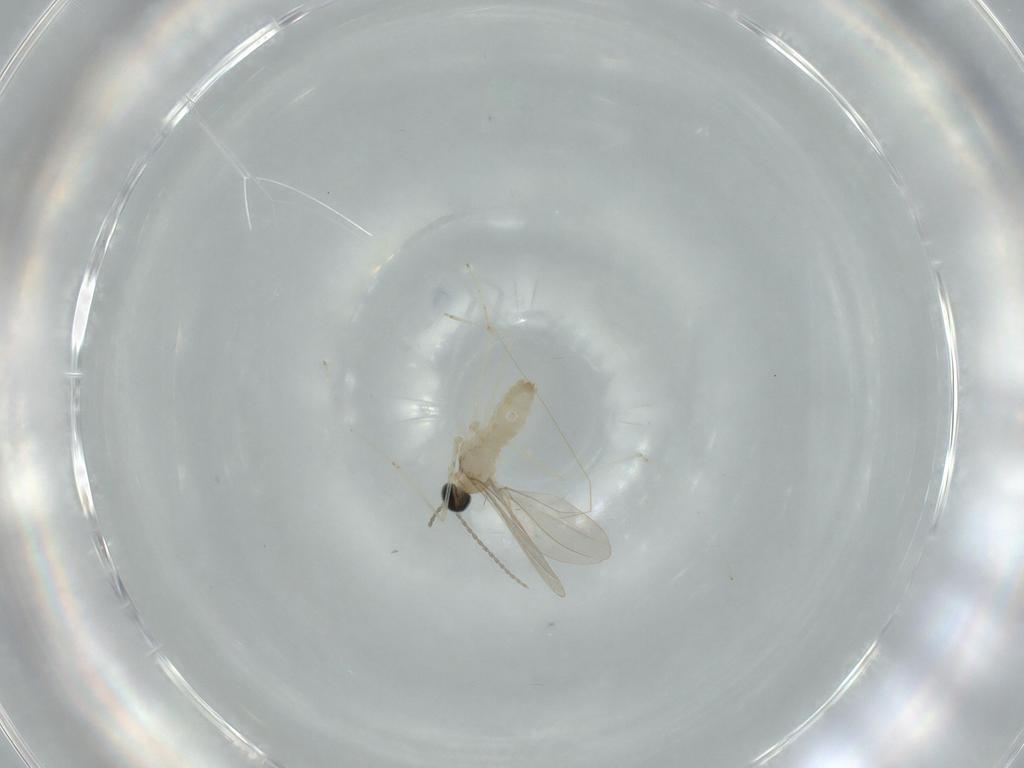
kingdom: Animalia
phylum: Arthropoda
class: Insecta
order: Diptera
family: Cecidomyiidae
